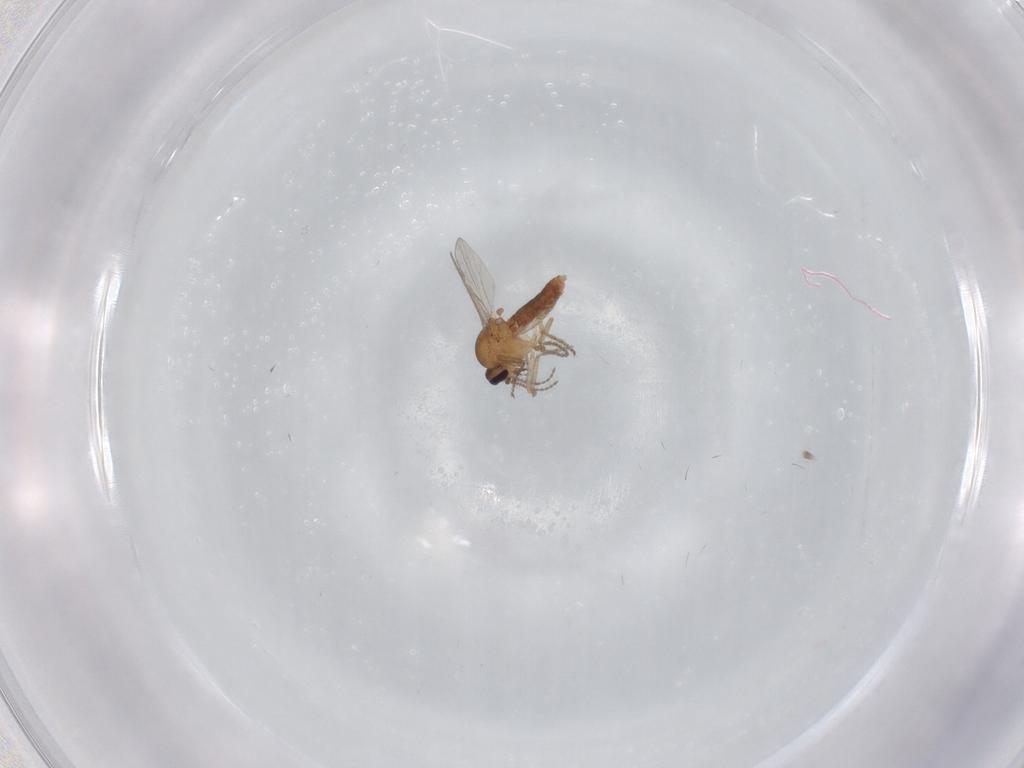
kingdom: Animalia
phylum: Arthropoda
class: Insecta
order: Diptera
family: Ceratopogonidae
